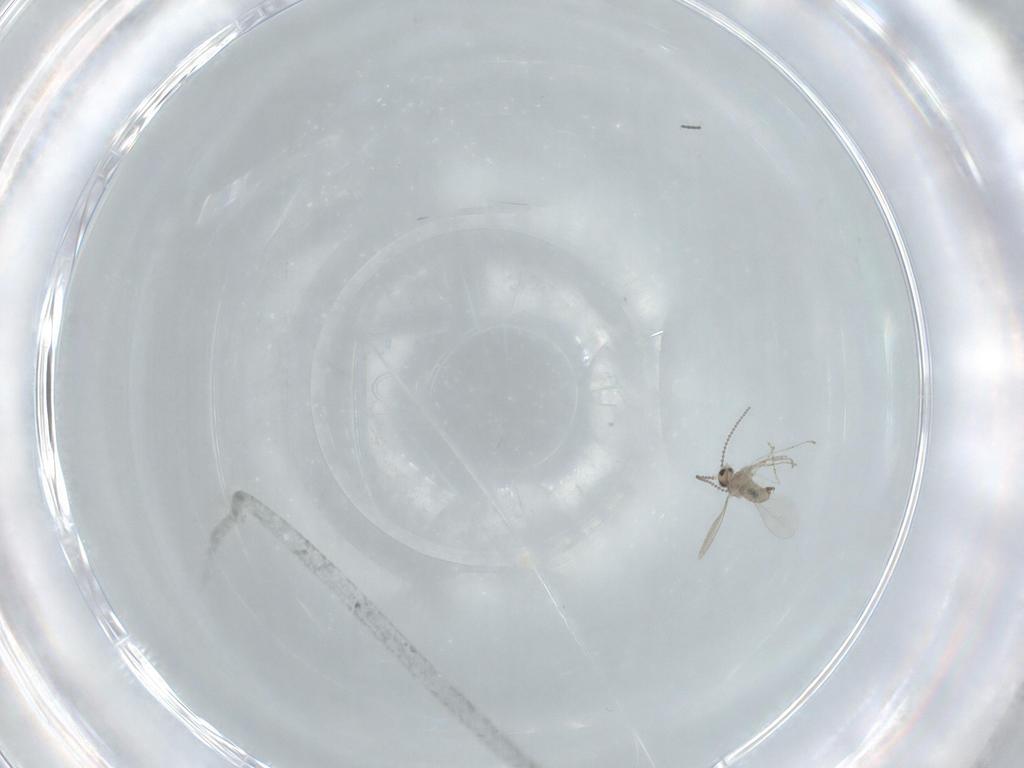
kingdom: Animalia
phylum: Arthropoda
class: Insecta
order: Diptera
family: Cecidomyiidae
